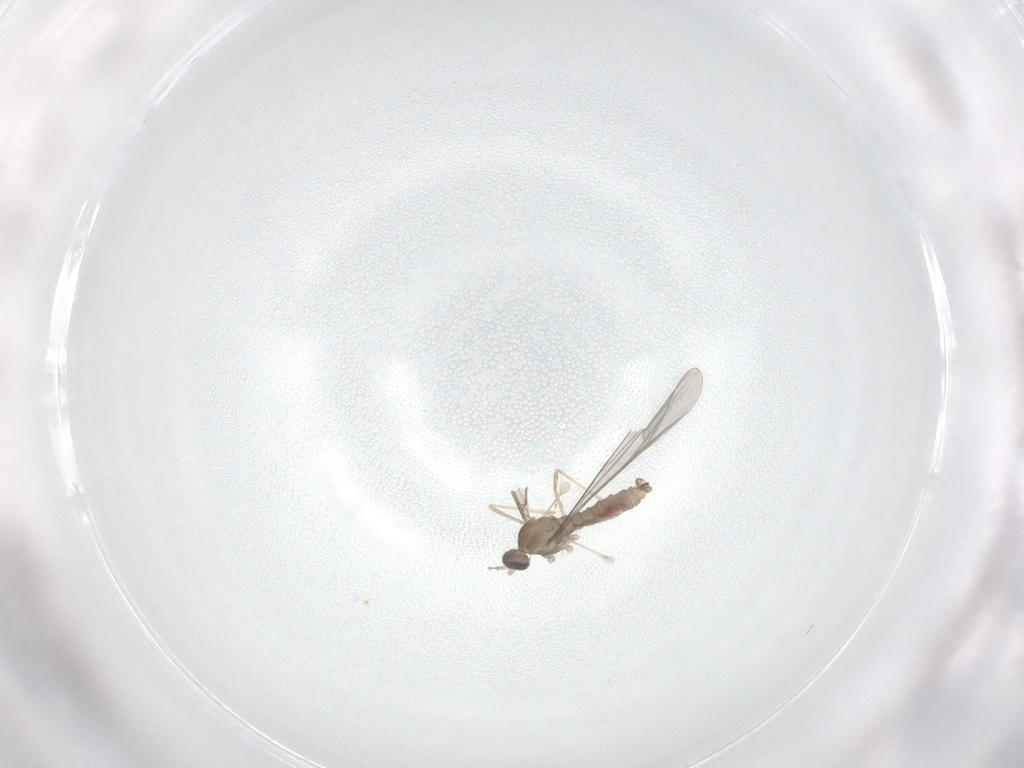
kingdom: Animalia
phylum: Arthropoda
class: Insecta
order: Diptera
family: Cecidomyiidae
